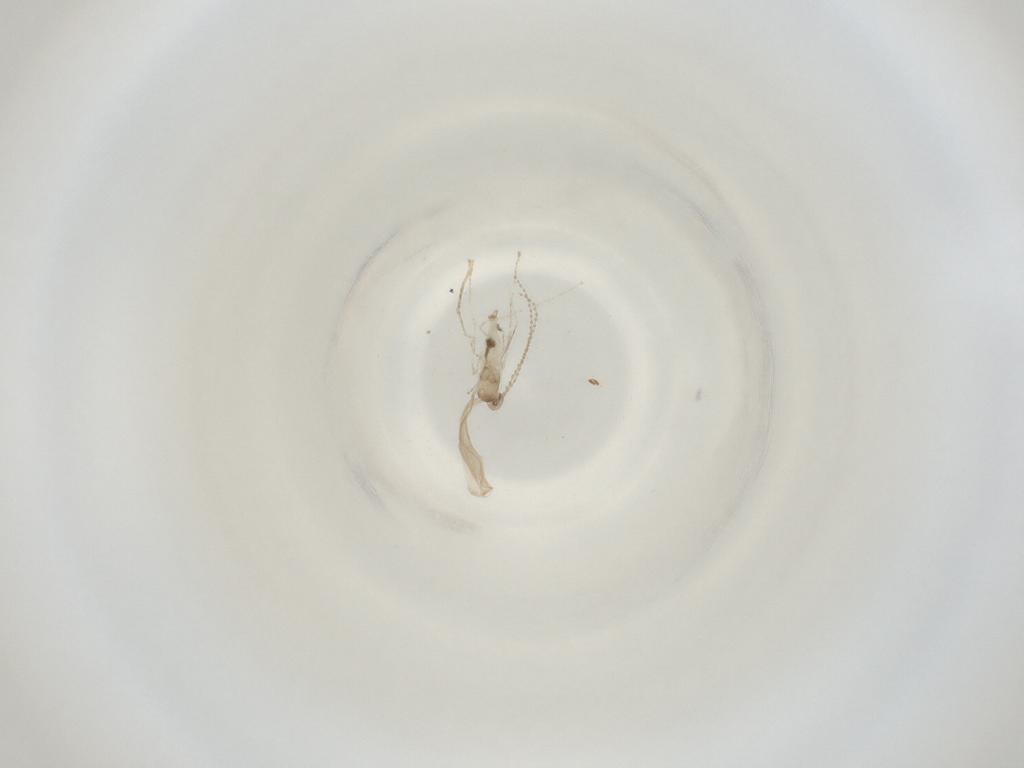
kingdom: Animalia
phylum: Arthropoda
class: Insecta
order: Diptera
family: Cecidomyiidae
